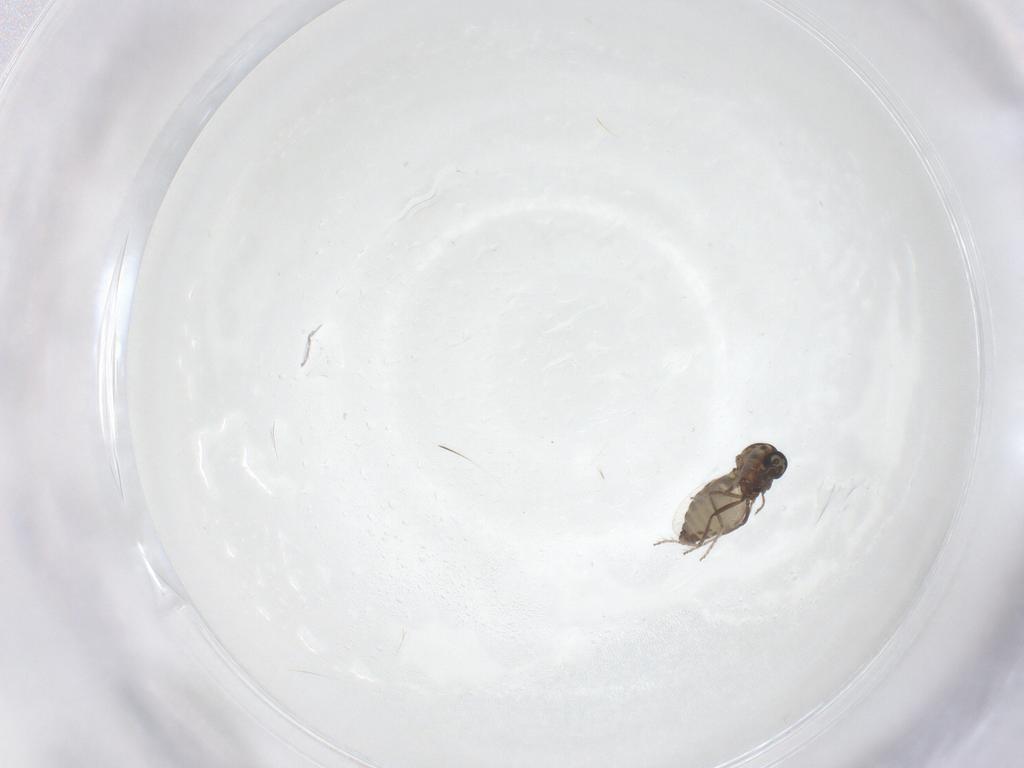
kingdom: Animalia
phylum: Arthropoda
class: Insecta
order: Diptera
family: Ceratopogonidae
